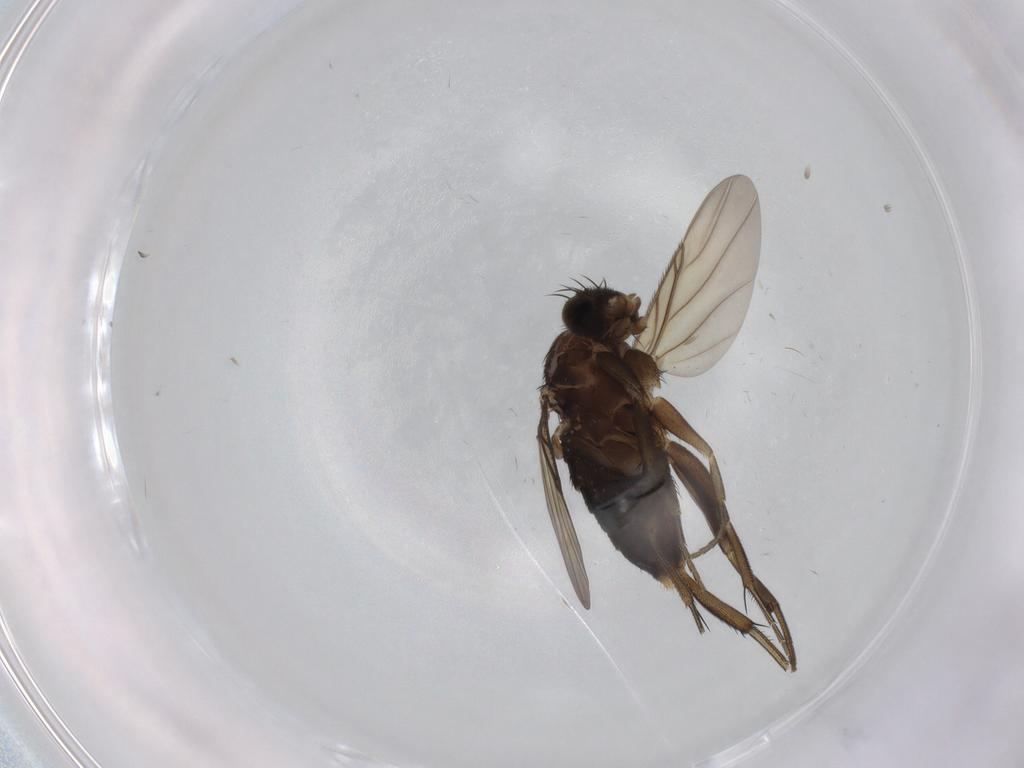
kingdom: Animalia
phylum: Arthropoda
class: Insecta
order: Diptera
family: Phoridae
